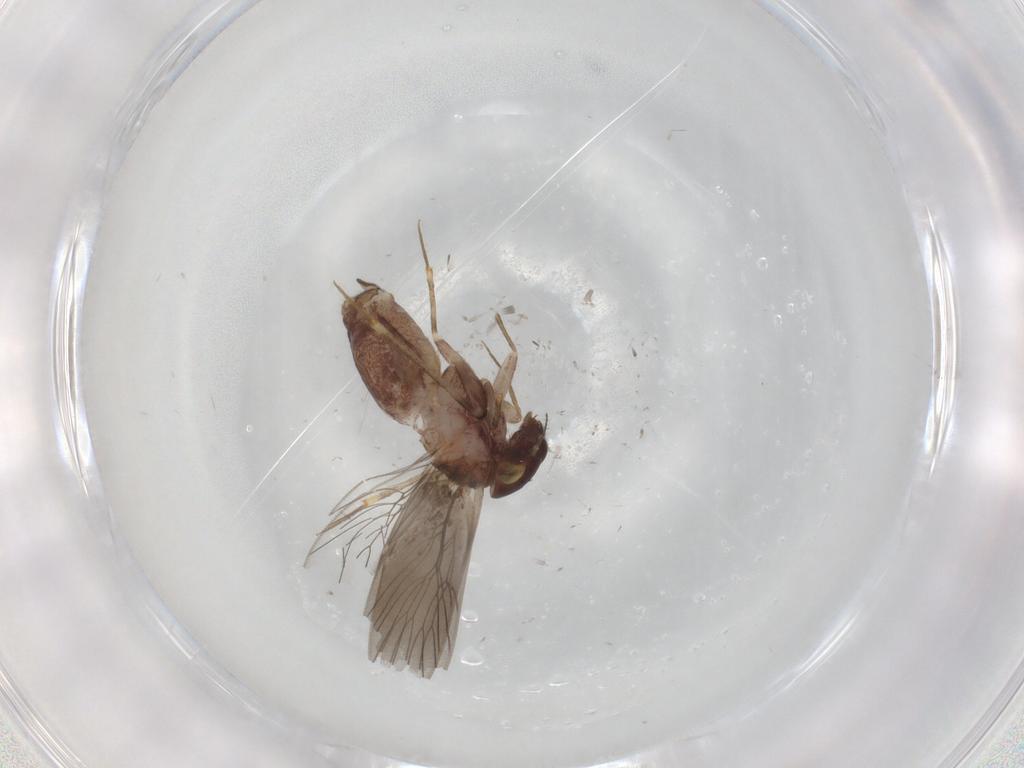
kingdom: Animalia
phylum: Arthropoda
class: Insecta
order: Psocodea
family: Lepidopsocidae
